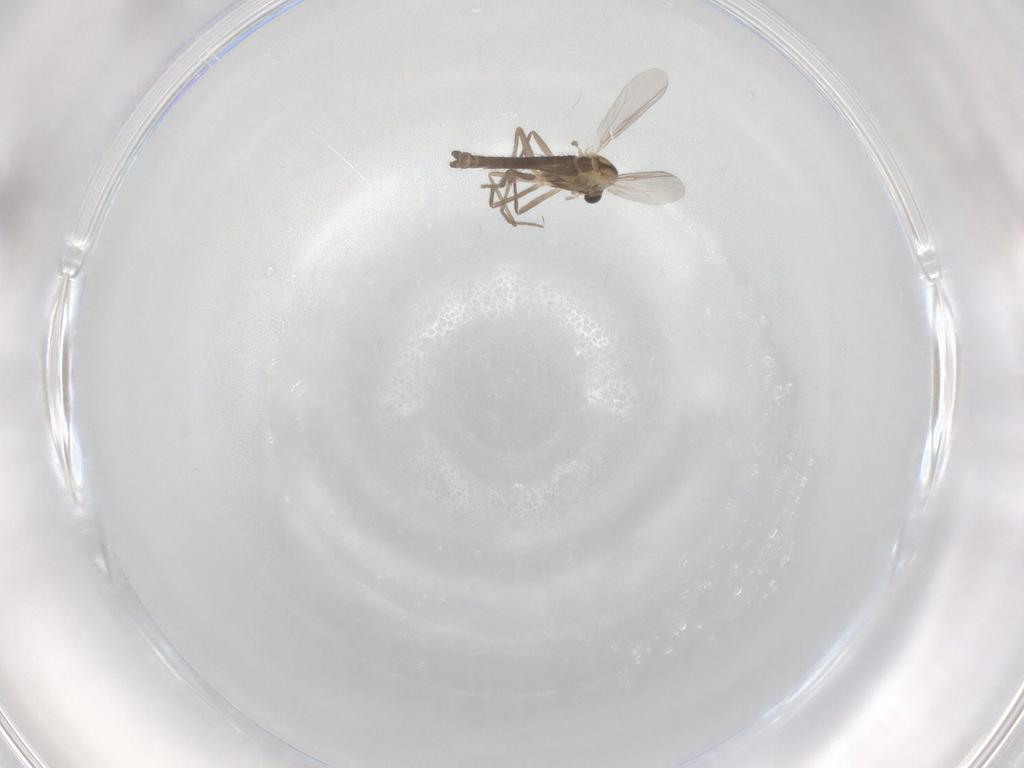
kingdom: Animalia
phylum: Arthropoda
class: Insecta
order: Diptera
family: Chironomidae
